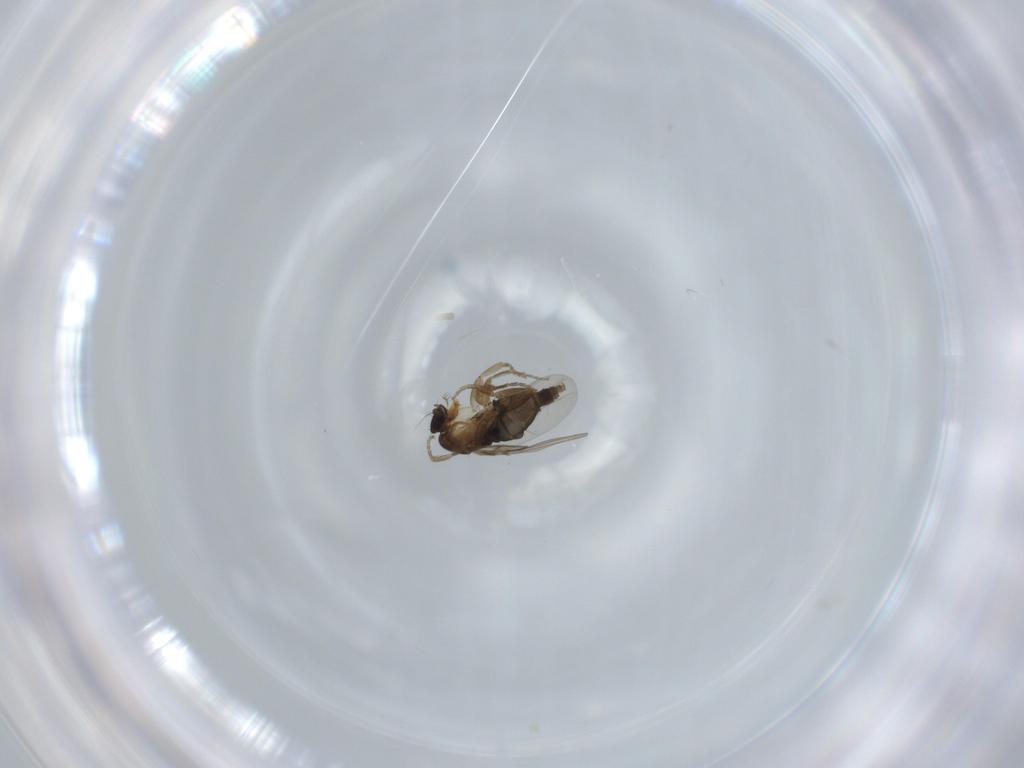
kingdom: Animalia
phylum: Arthropoda
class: Insecta
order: Diptera
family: Phoridae
